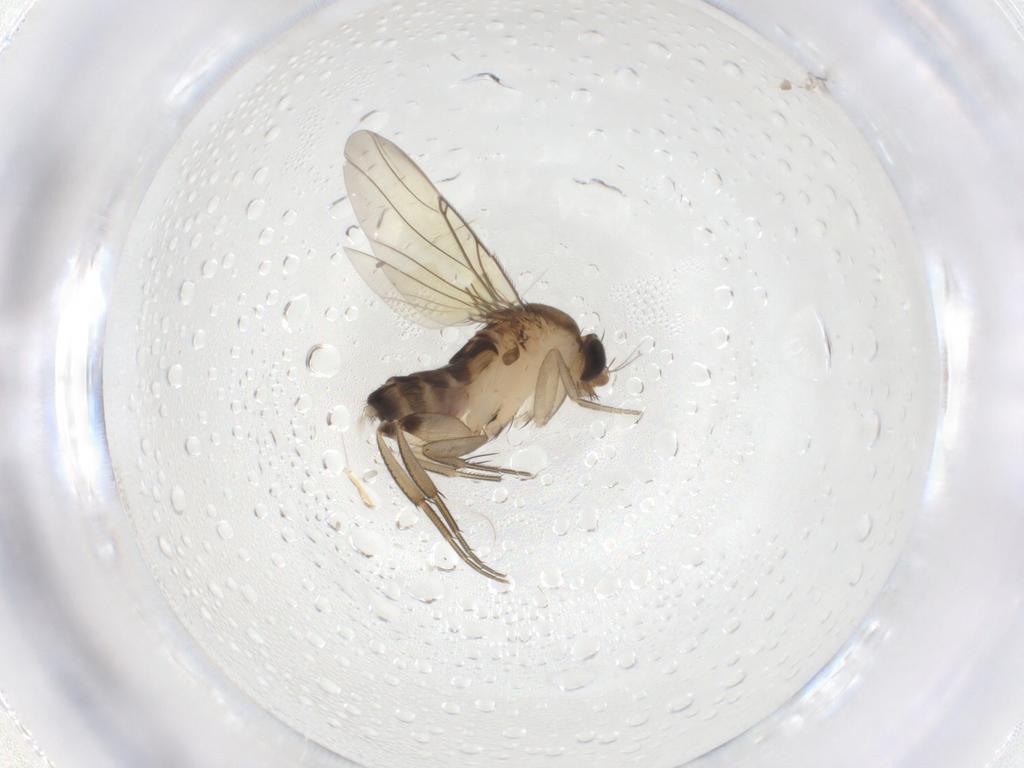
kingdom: Animalia
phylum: Arthropoda
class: Insecta
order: Diptera
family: Phoridae
